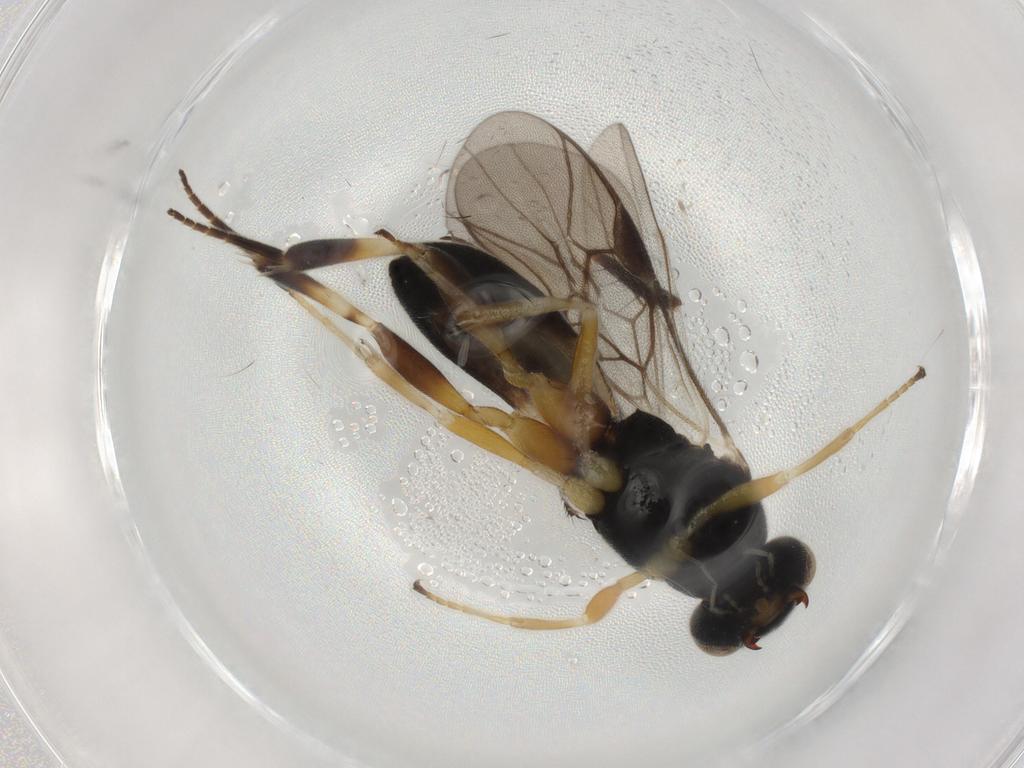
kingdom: Animalia
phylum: Arthropoda
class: Insecta
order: Hymenoptera
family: Braconidae
